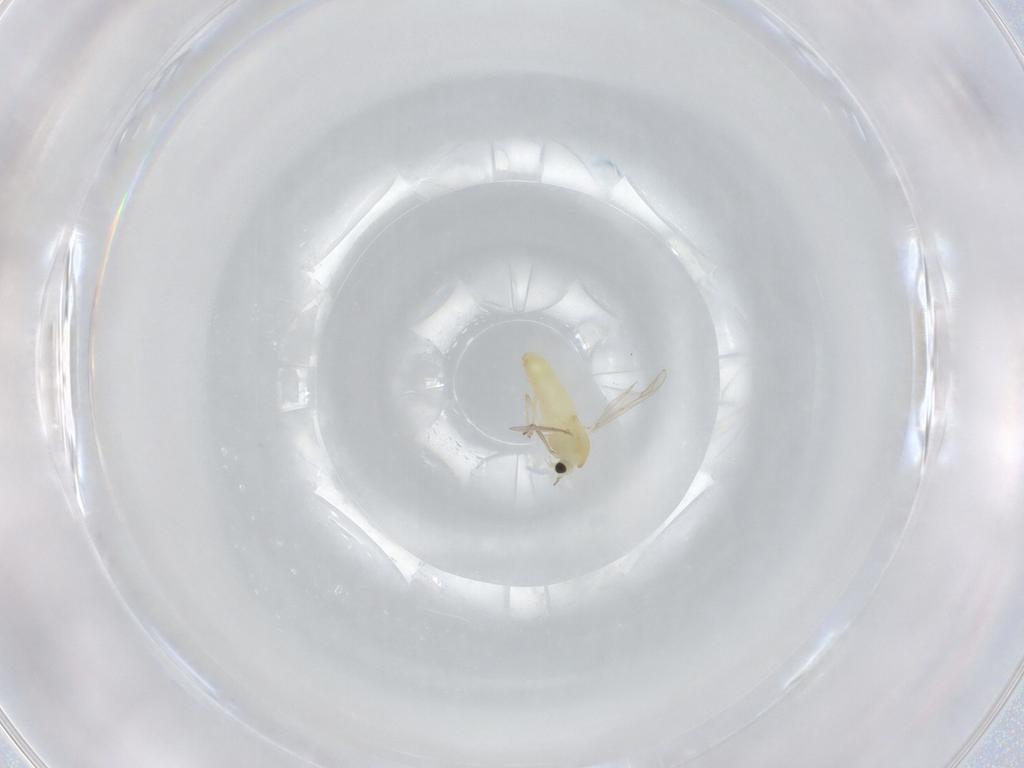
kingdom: Animalia
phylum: Arthropoda
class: Insecta
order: Diptera
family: Chironomidae
